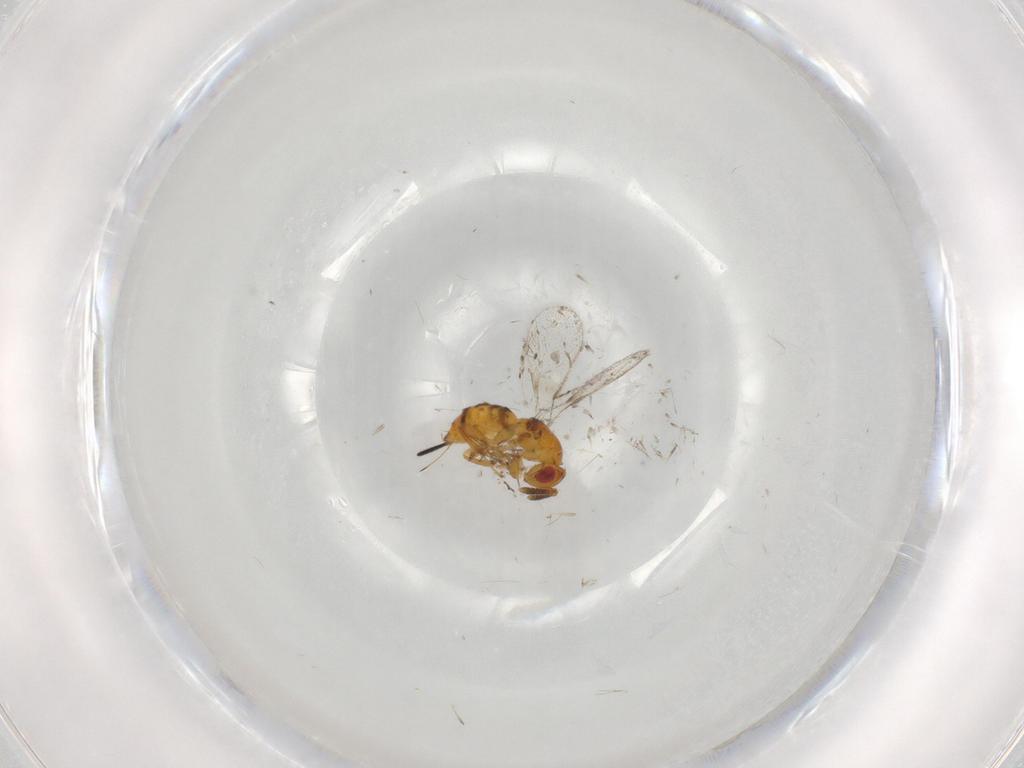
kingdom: Animalia
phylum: Arthropoda
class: Insecta
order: Hymenoptera
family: Torymidae
